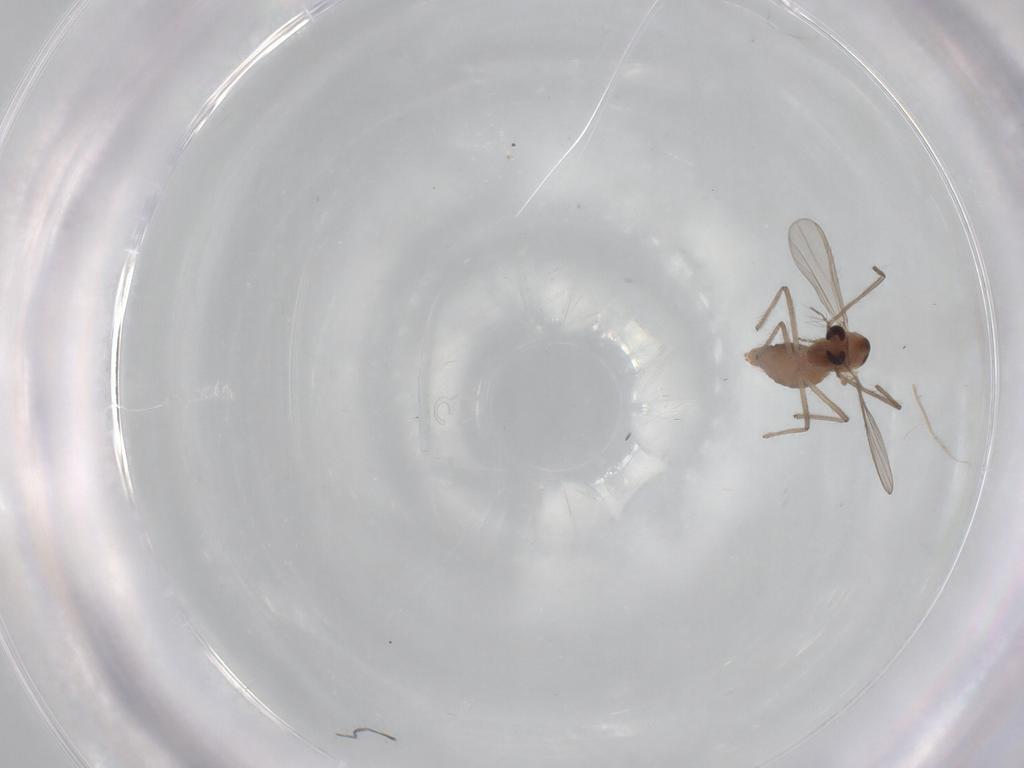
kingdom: Animalia
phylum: Arthropoda
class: Insecta
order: Diptera
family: Chironomidae
